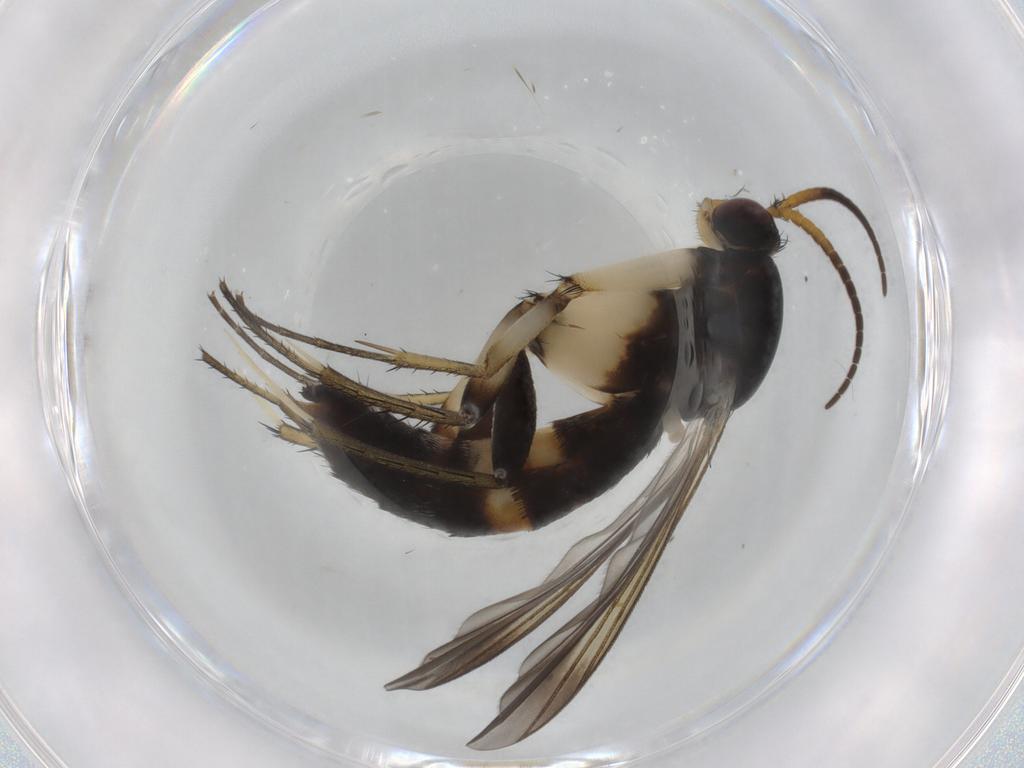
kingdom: Animalia
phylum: Arthropoda
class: Insecta
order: Diptera
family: Mycetophilidae
